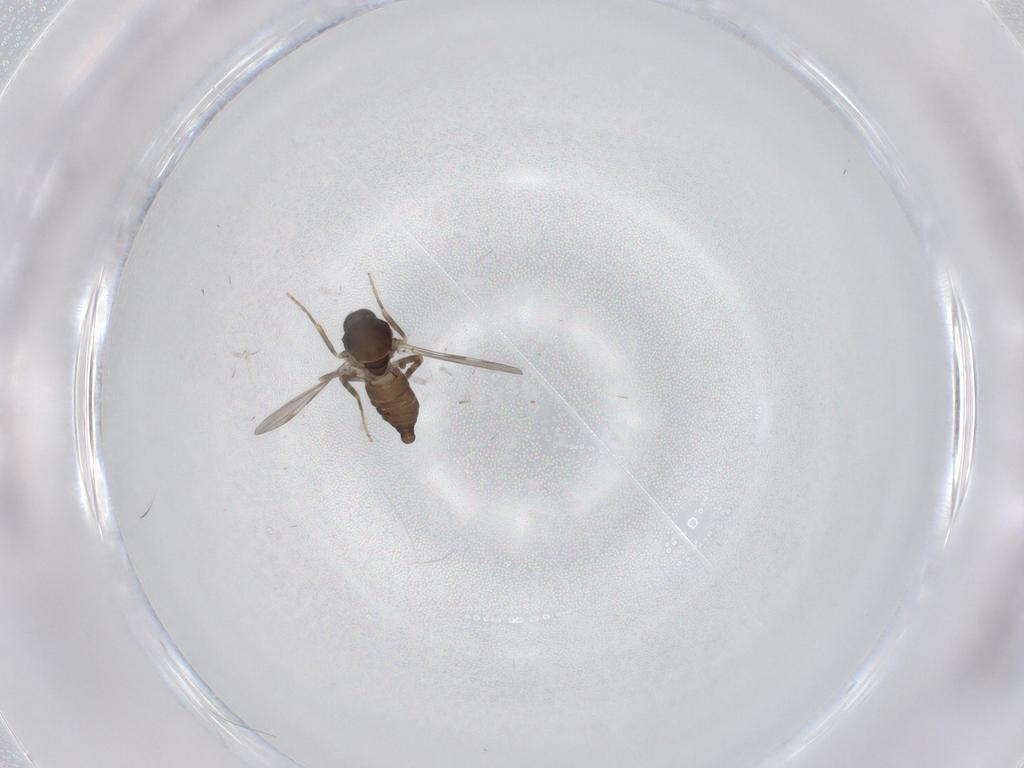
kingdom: Animalia
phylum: Arthropoda
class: Insecta
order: Diptera
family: Ceratopogonidae
